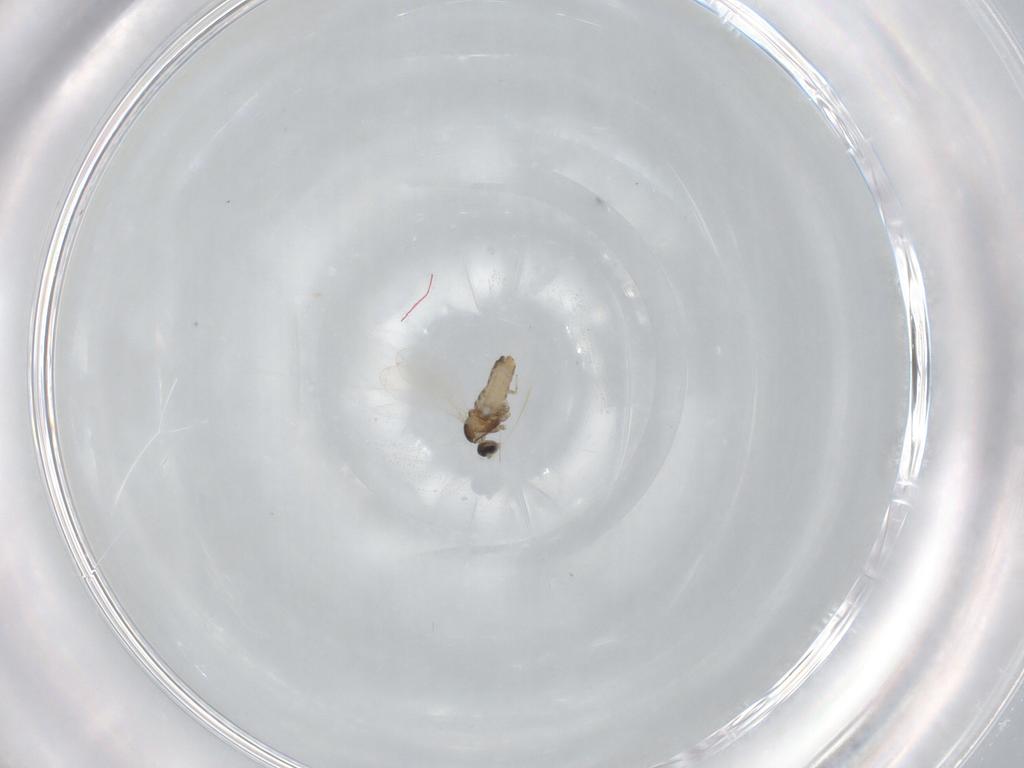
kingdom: Animalia
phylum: Arthropoda
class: Insecta
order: Diptera
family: Cecidomyiidae
